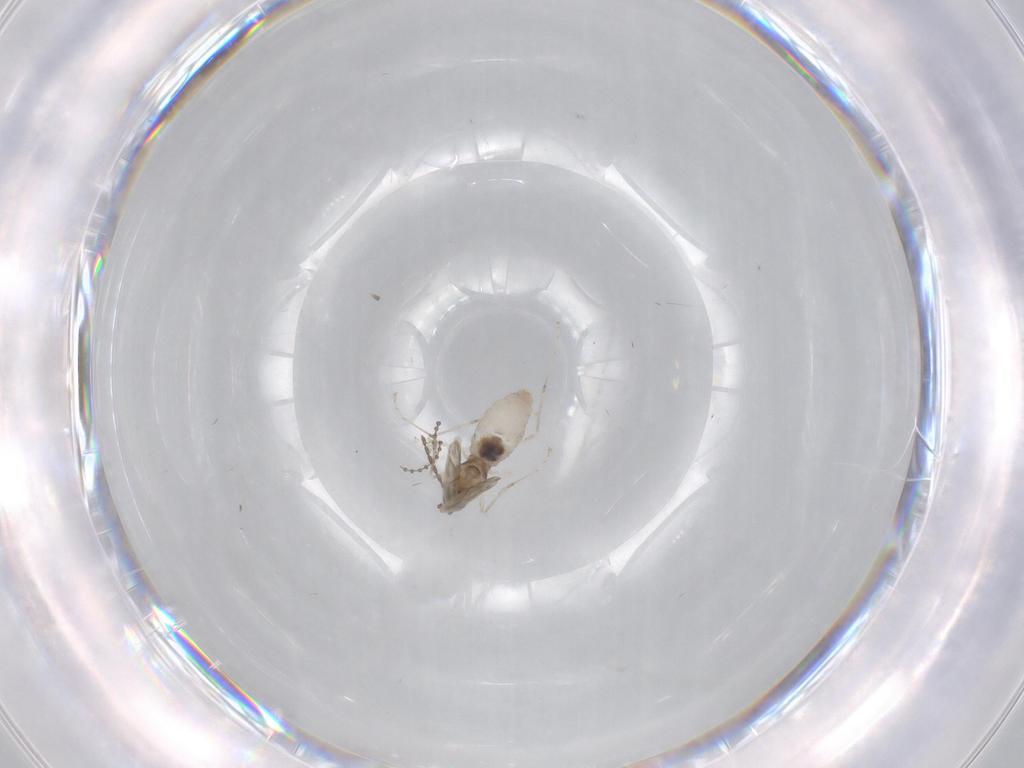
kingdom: Animalia
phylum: Arthropoda
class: Insecta
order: Diptera
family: Cecidomyiidae
